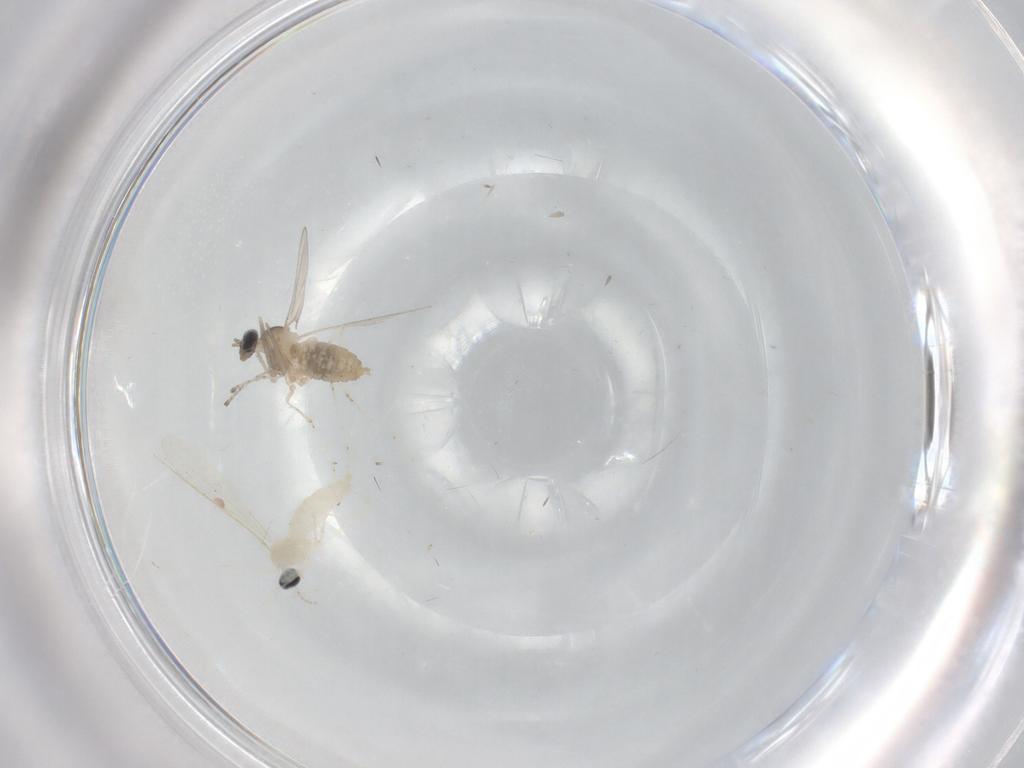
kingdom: Animalia
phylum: Arthropoda
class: Insecta
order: Diptera
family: Cecidomyiidae
